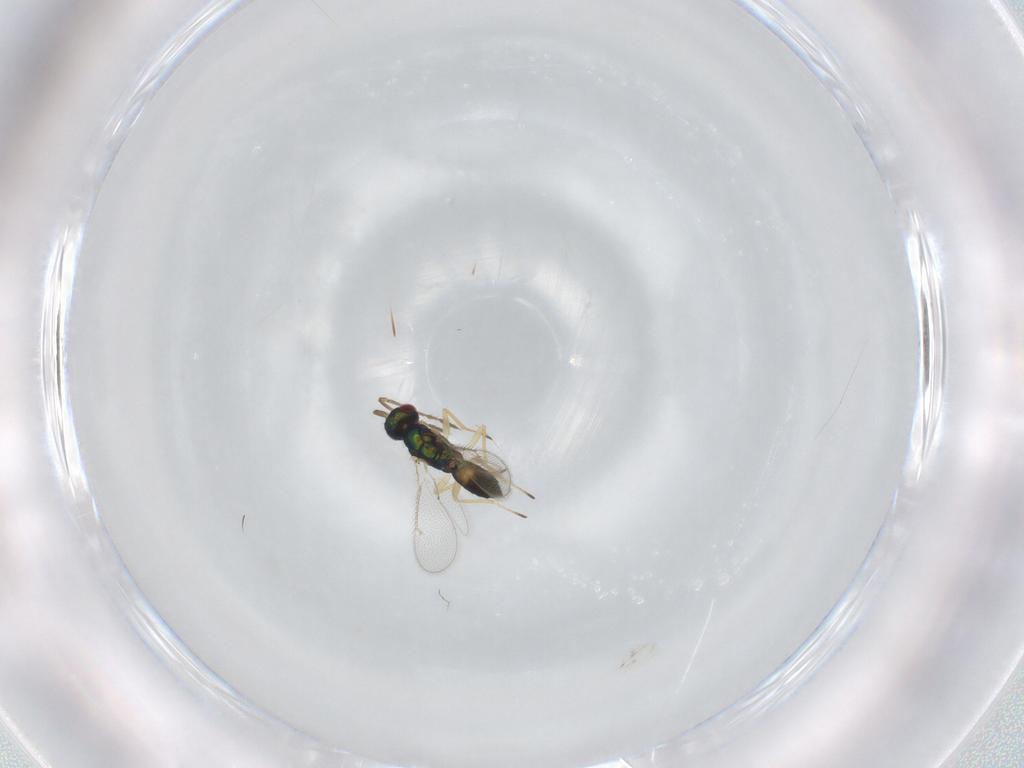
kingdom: Animalia
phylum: Arthropoda
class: Insecta
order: Hymenoptera
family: Eulophidae
